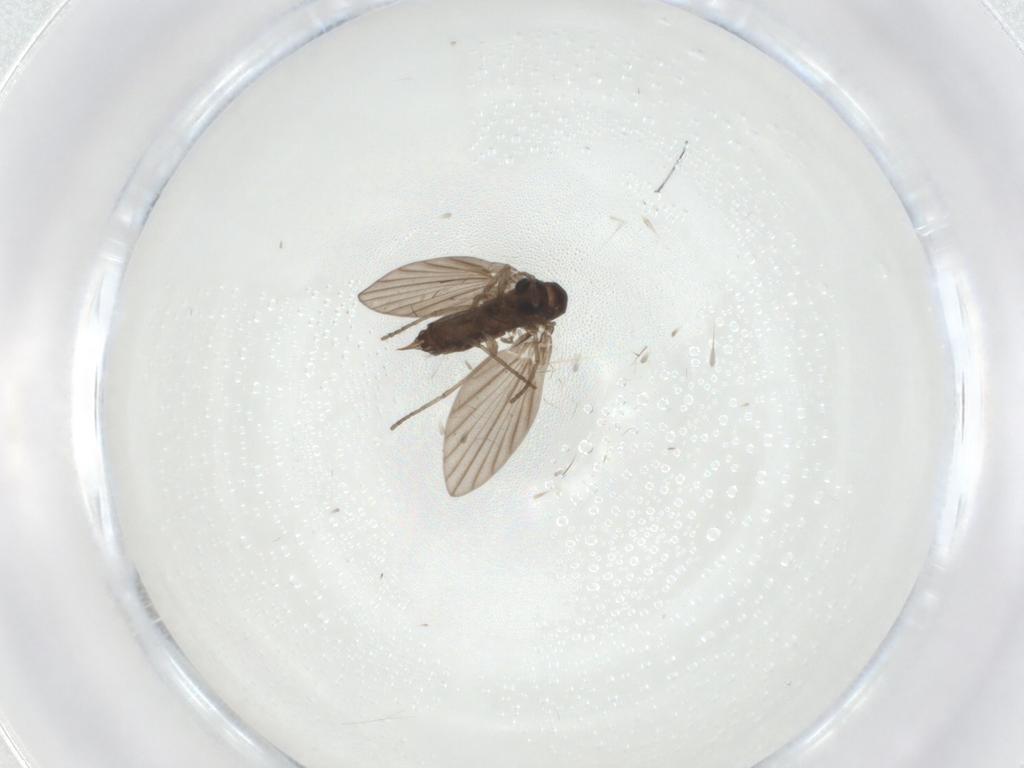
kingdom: Animalia
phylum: Arthropoda
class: Insecta
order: Diptera
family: Psychodidae
